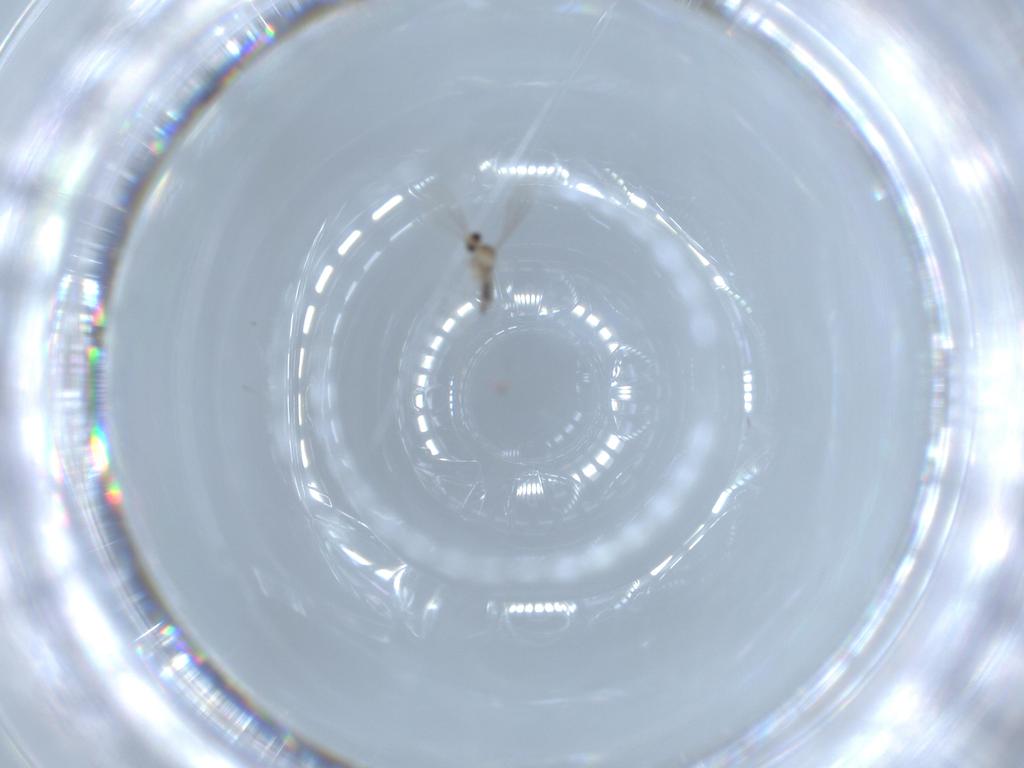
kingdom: Animalia
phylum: Arthropoda
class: Insecta
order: Diptera
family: Cecidomyiidae
